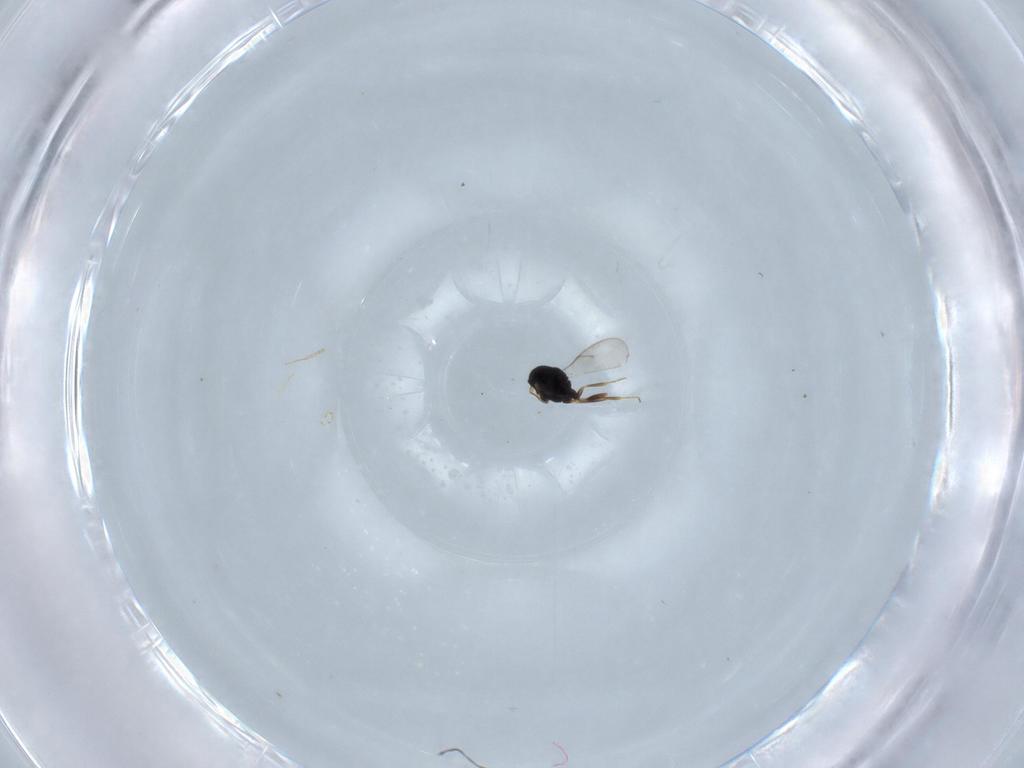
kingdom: Animalia
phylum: Arthropoda
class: Insecta
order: Hymenoptera
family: Scelionidae
